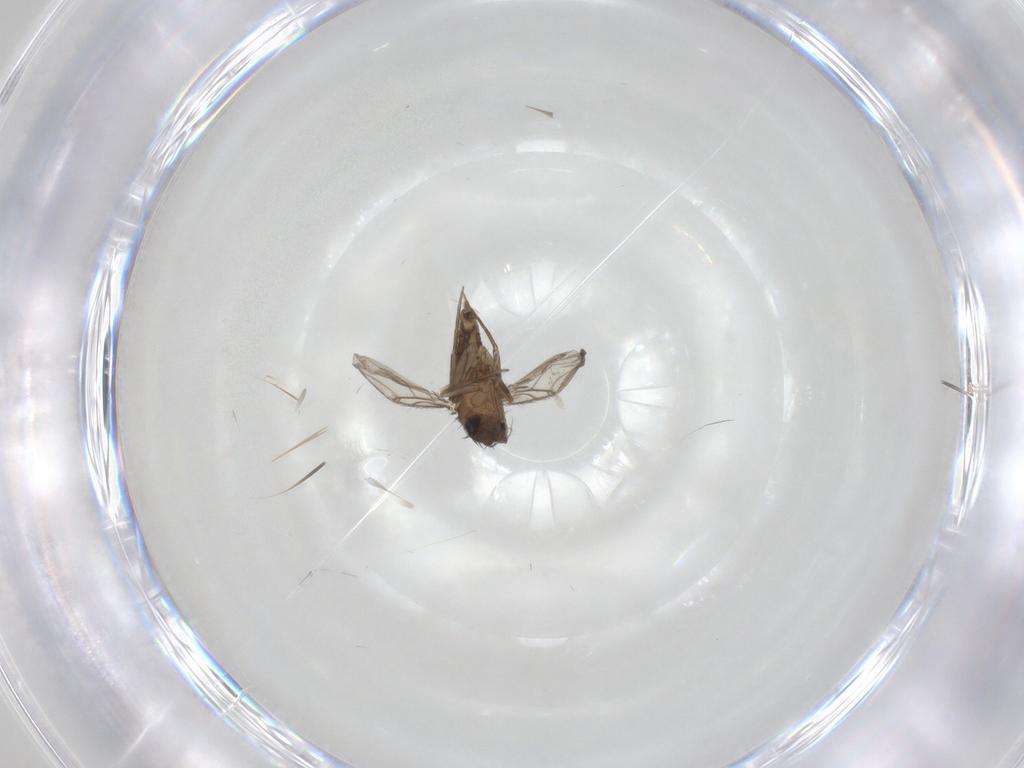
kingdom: Animalia
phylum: Arthropoda
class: Insecta
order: Diptera
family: Phoridae
